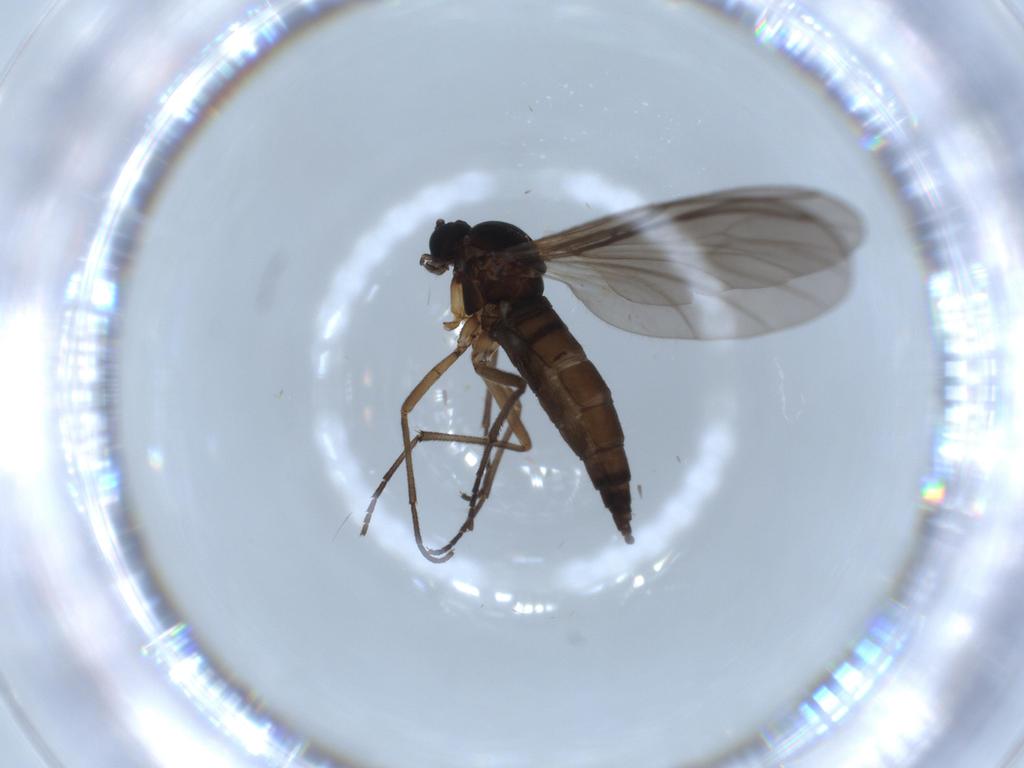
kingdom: Animalia
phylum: Arthropoda
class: Insecta
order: Diptera
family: Sciaridae
